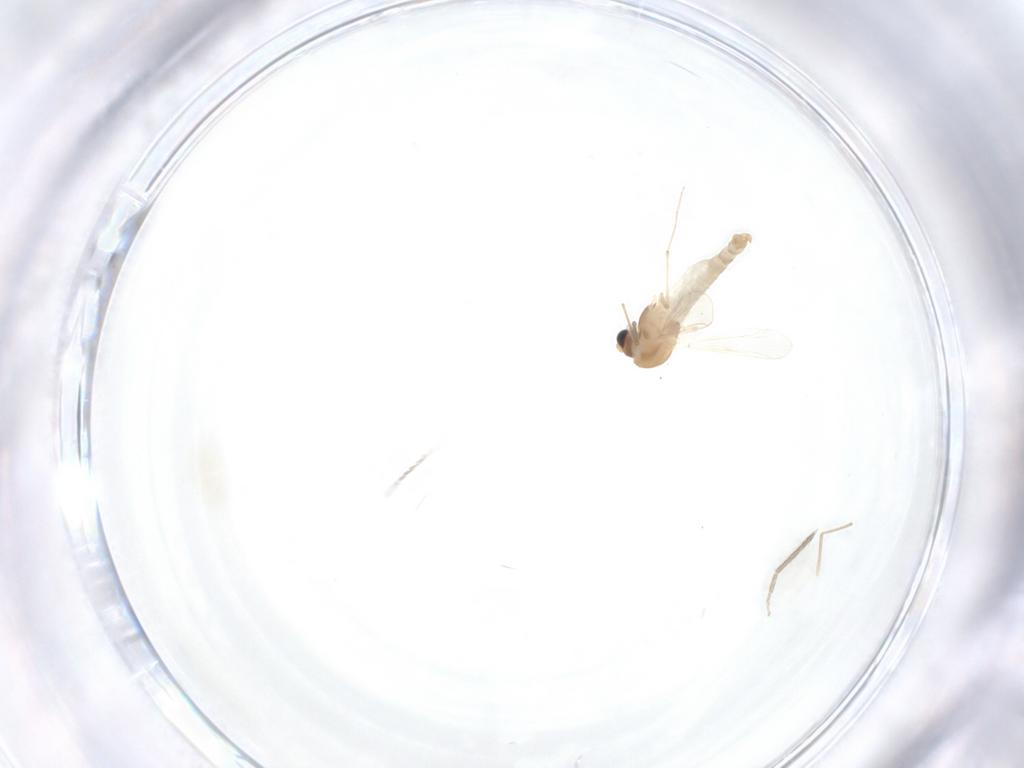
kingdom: Animalia
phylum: Arthropoda
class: Insecta
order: Diptera
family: Chironomidae
